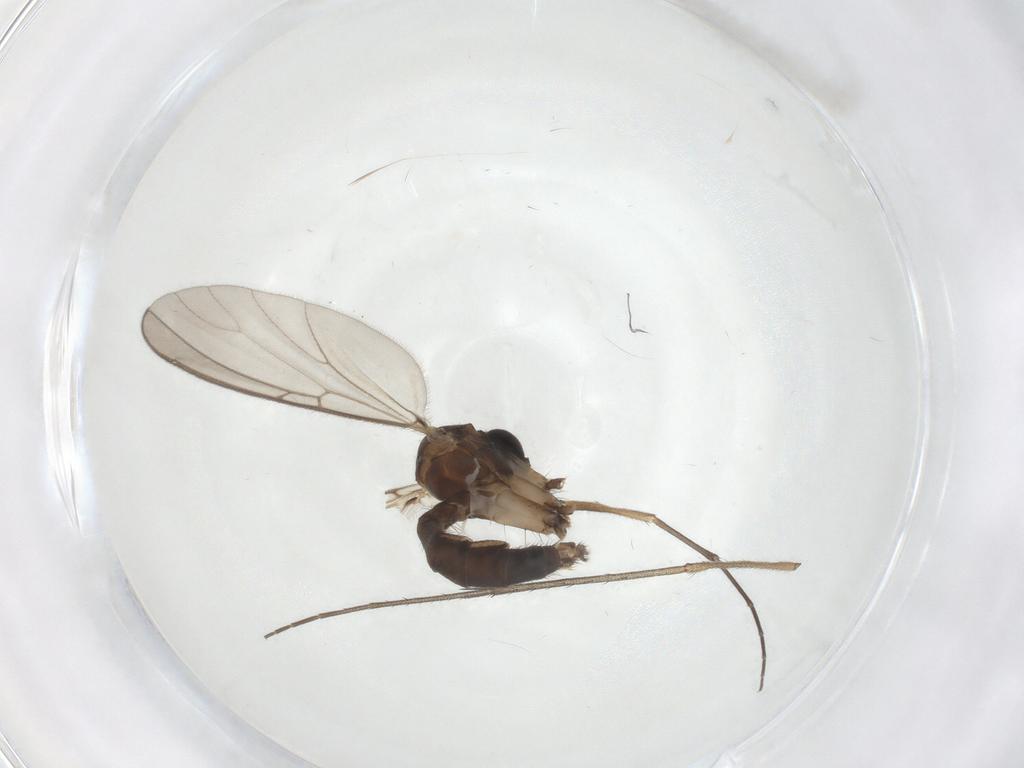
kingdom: Animalia
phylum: Arthropoda
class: Insecta
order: Diptera
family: Mycetophilidae
